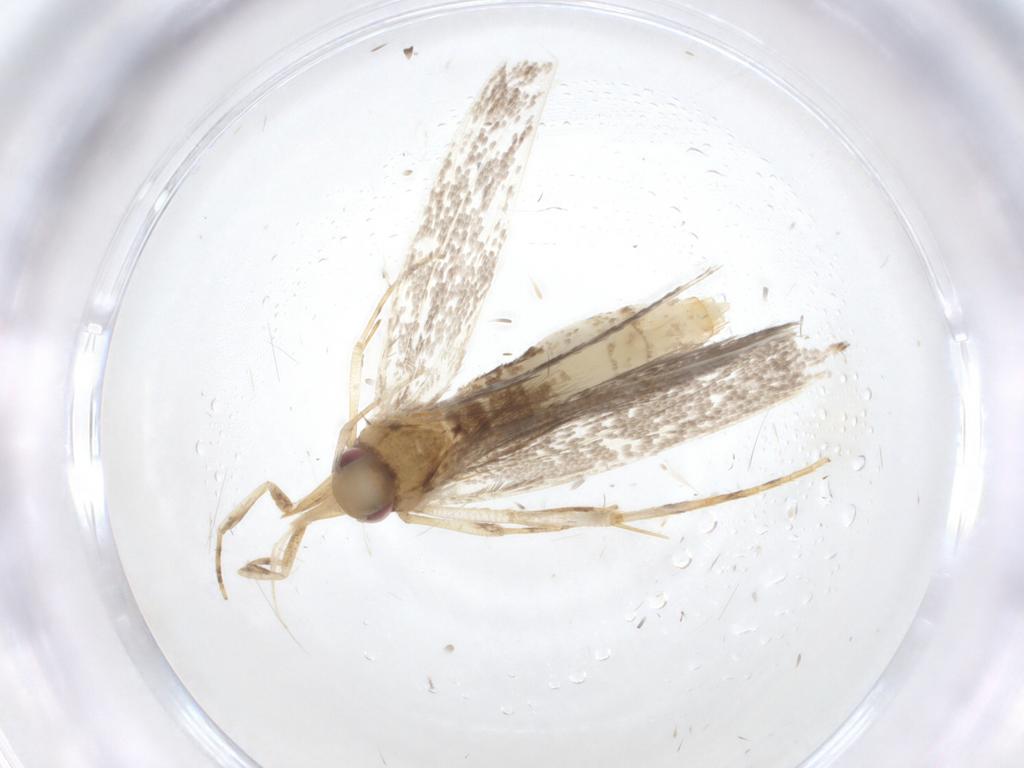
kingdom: Animalia
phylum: Arthropoda
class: Insecta
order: Lepidoptera
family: Cosmopterigidae
